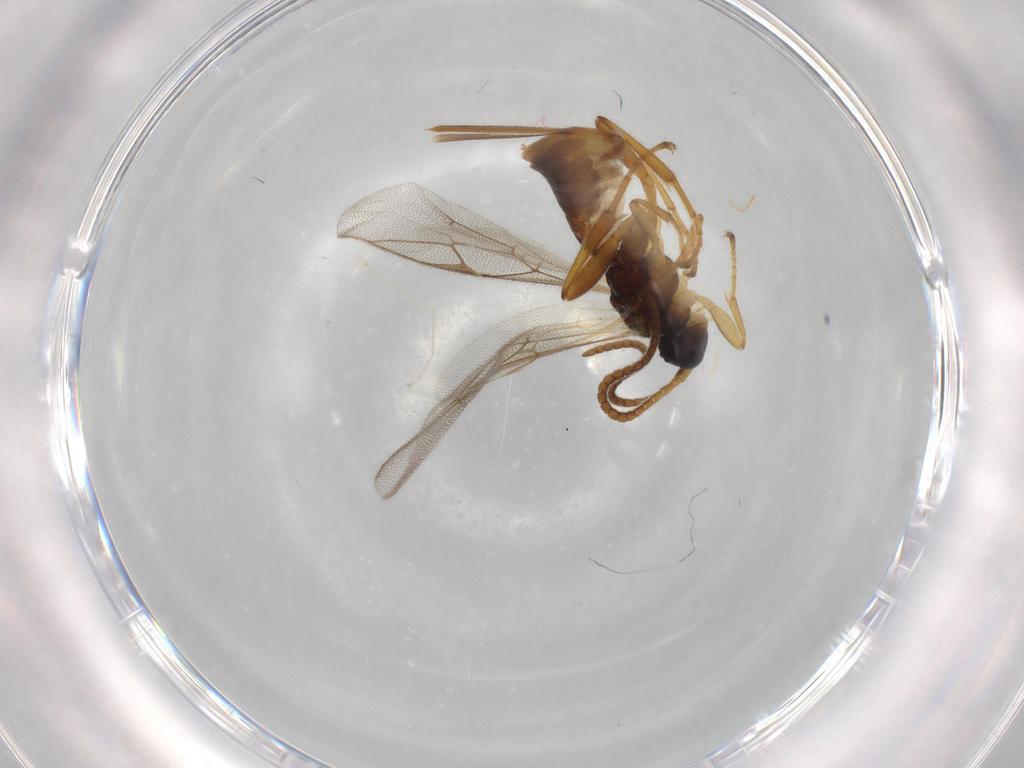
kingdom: Animalia
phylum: Arthropoda
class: Insecta
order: Hymenoptera
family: Ichneumonidae
